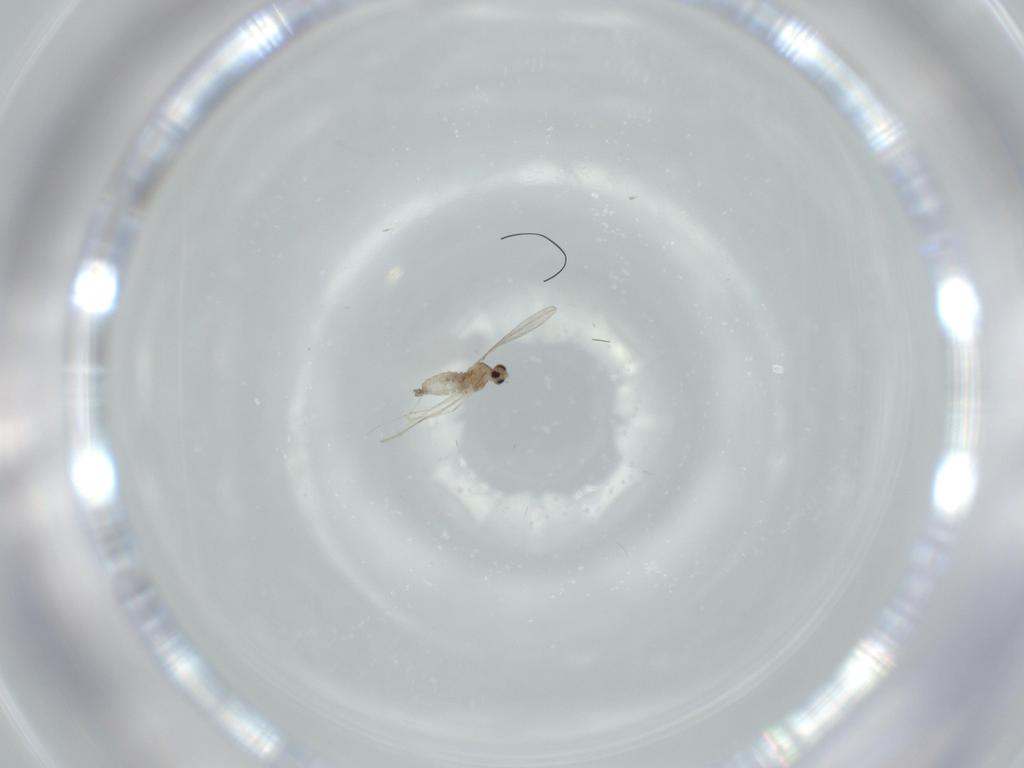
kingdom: Animalia
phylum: Arthropoda
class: Insecta
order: Diptera
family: Cecidomyiidae
